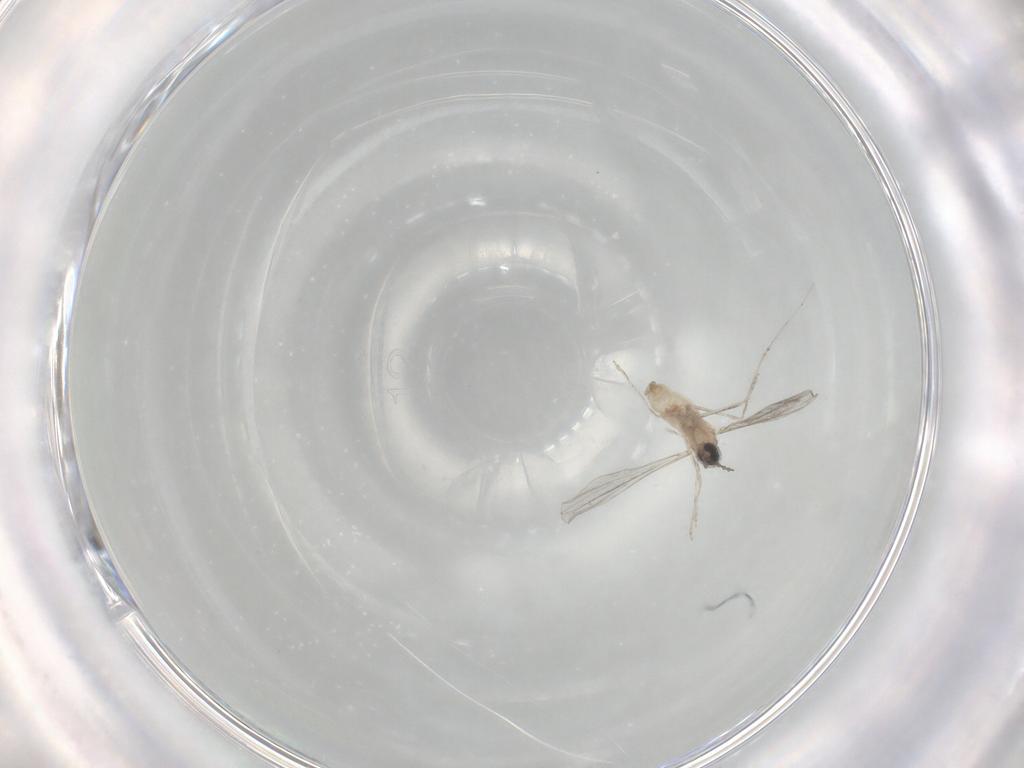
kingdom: Animalia
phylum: Arthropoda
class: Insecta
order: Diptera
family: Cecidomyiidae
